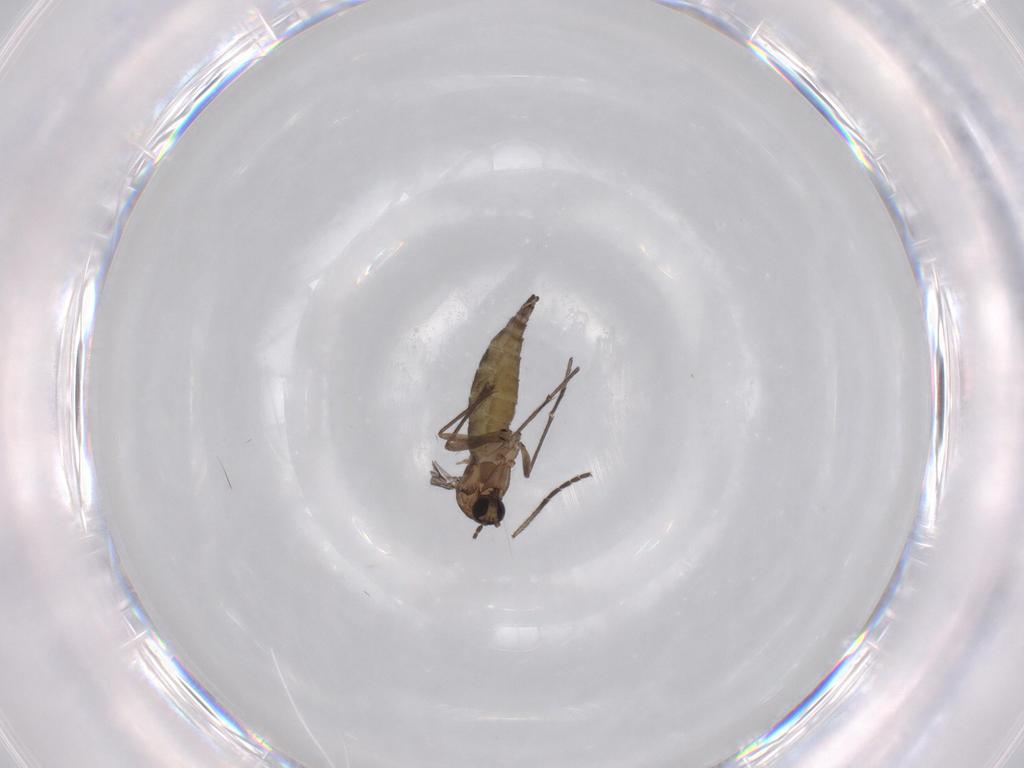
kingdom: Animalia
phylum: Arthropoda
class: Insecta
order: Diptera
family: Sciaridae
